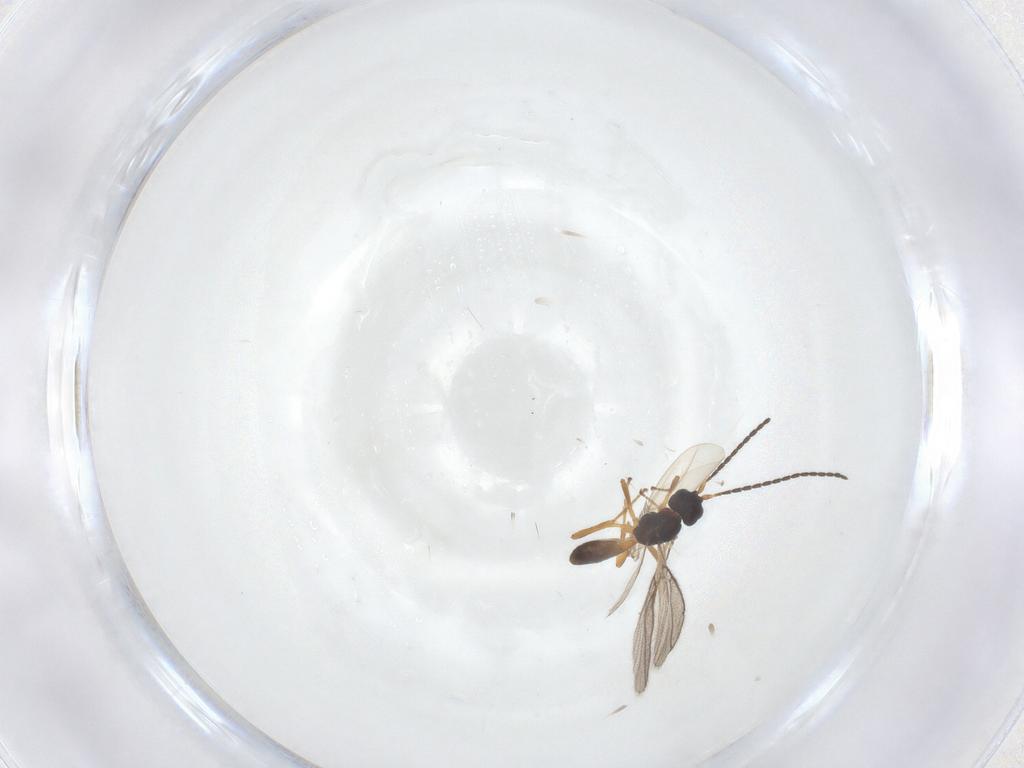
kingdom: Animalia
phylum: Arthropoda
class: Insecta
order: Hymenoptera
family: Braconidae
